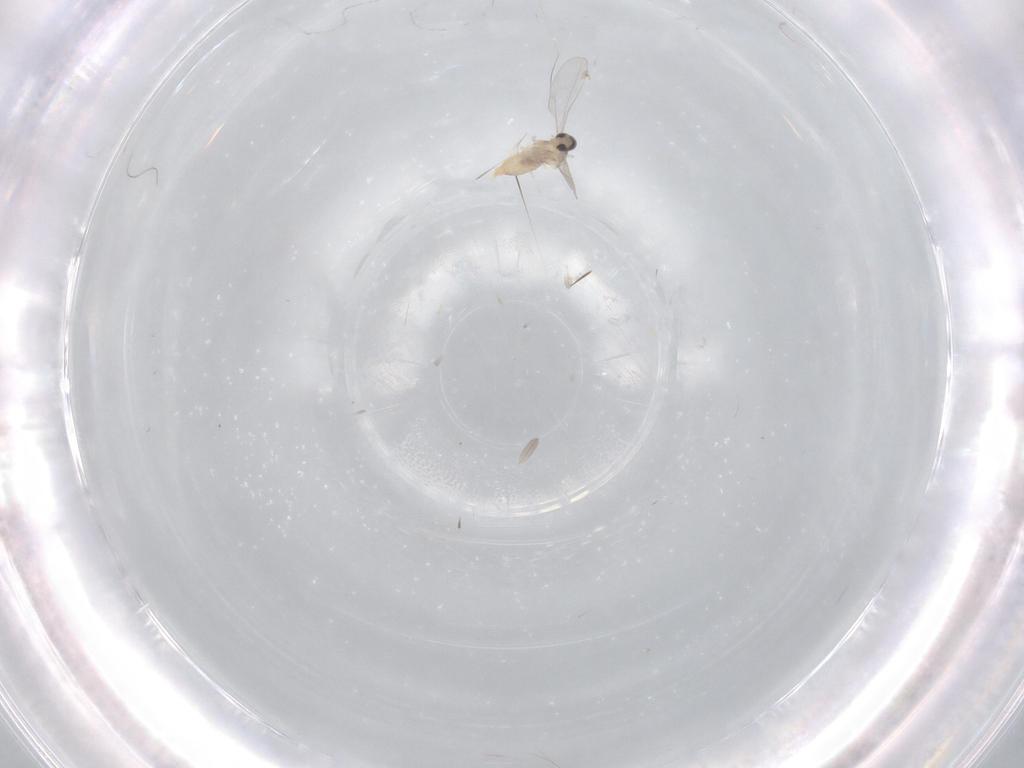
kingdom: Animalia
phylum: Arthropoda
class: Insecta
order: Diptera
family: Cecidomyiidae
